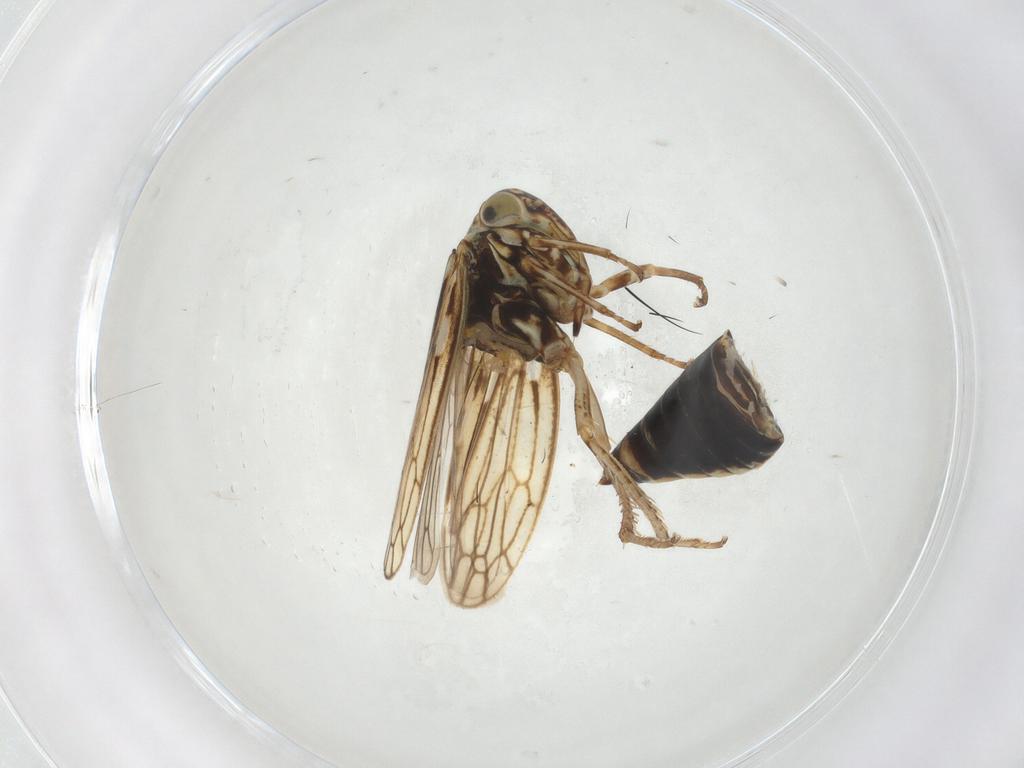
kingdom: Animalia
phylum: Arthropoda
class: Insecta
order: Hemiptera
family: Cicadellidae
